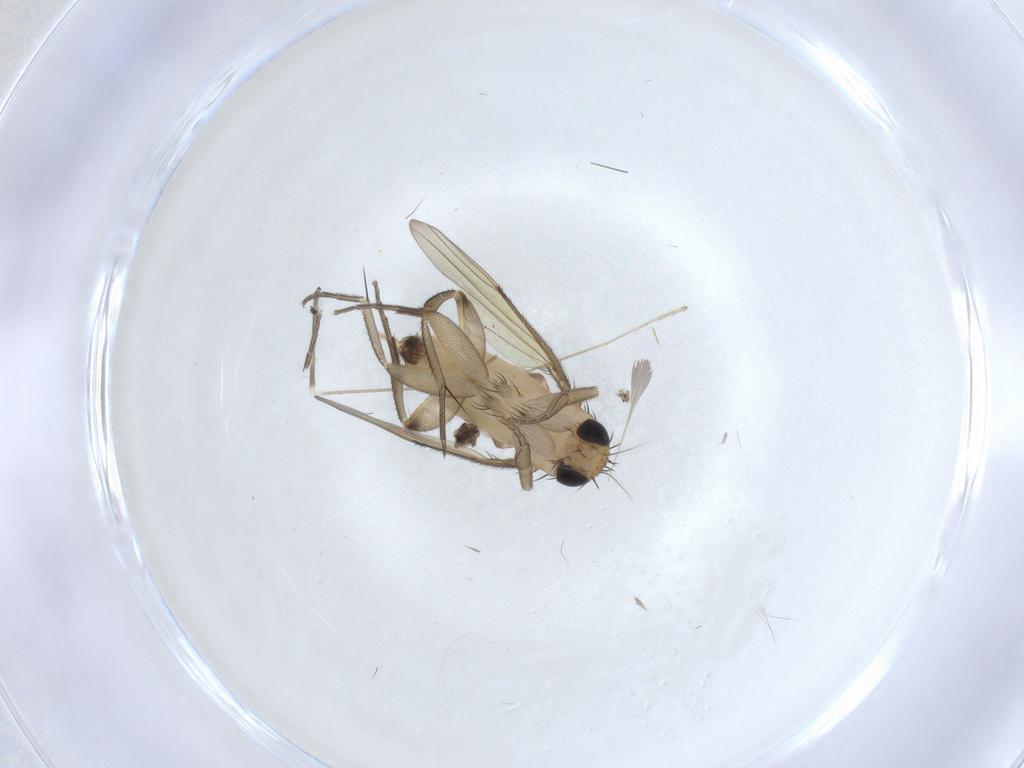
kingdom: Animalia
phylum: Arthropoda
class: Insecta
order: Diptera
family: Phoridae
